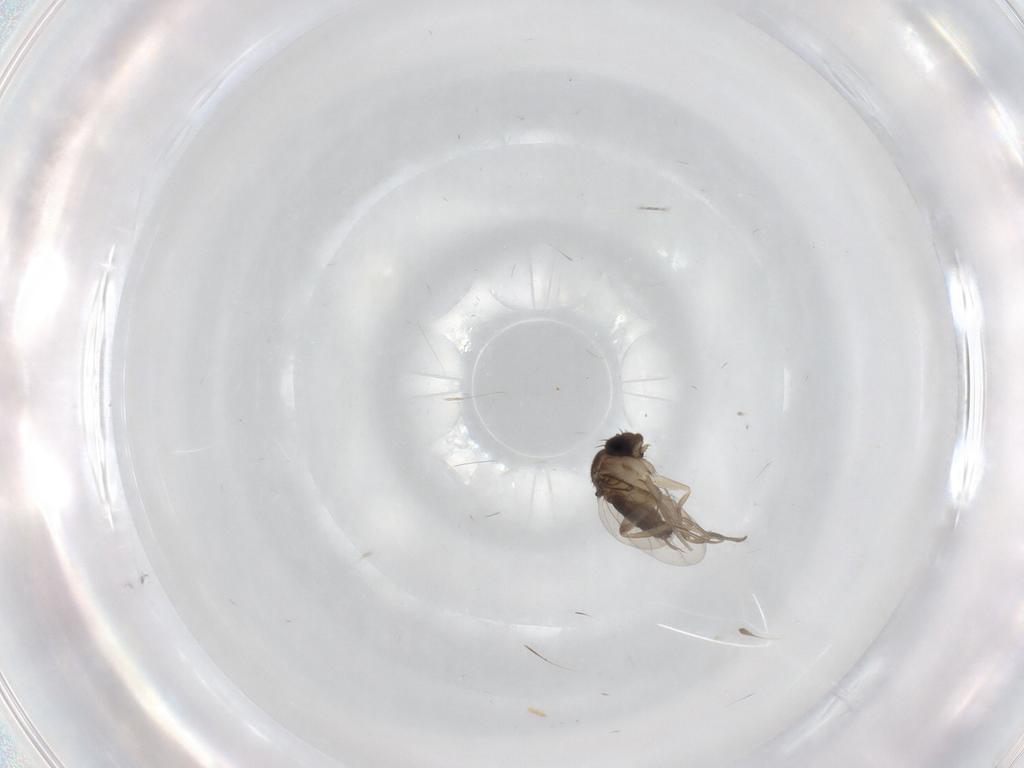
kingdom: Animalia
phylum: Arthropoda
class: Insecta
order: Diptera
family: Phoridae
